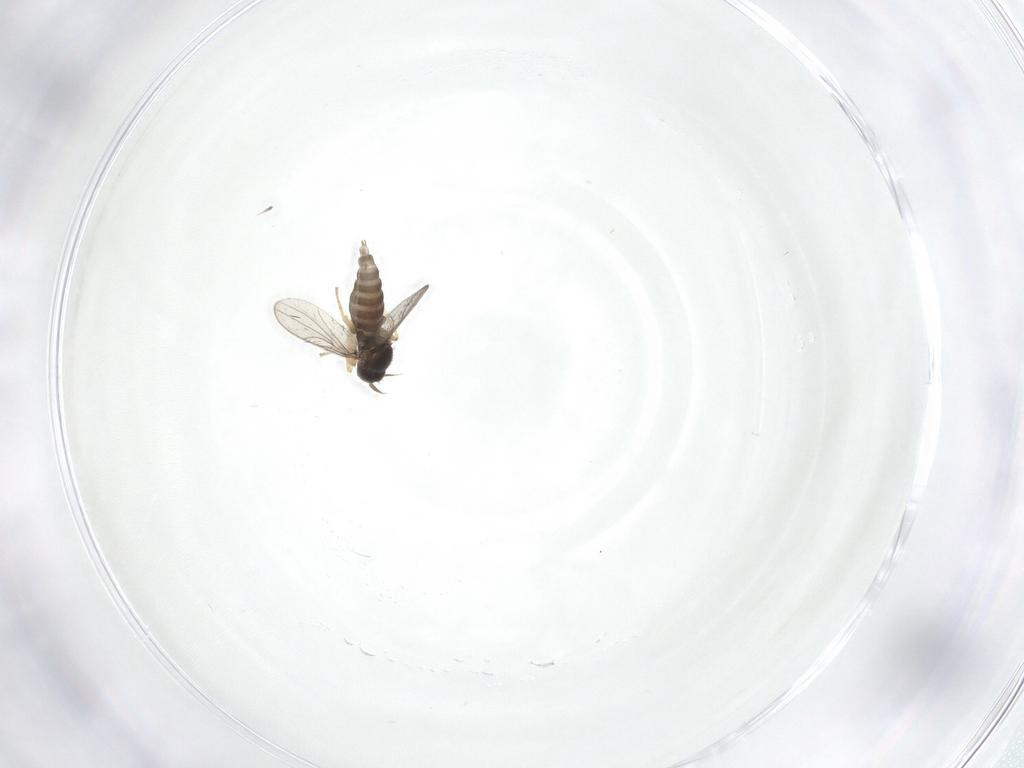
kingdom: Animalia
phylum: Arthropoda
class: Insecta
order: Diptera
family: Hybotidae
